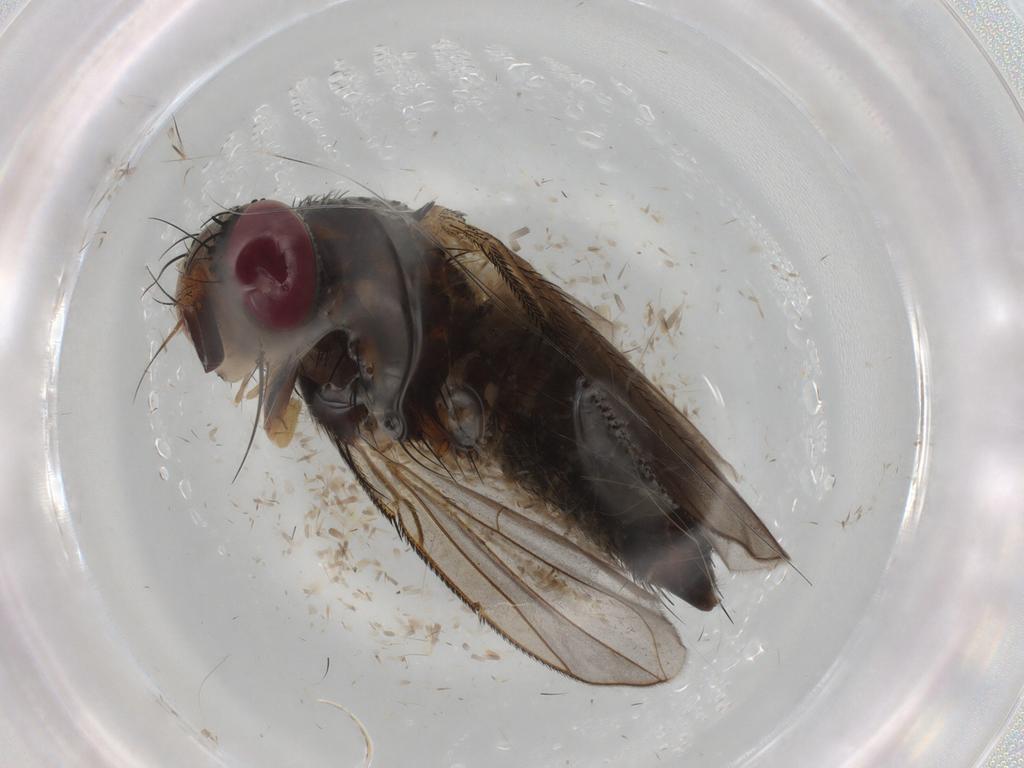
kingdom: Animalia
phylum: Arthropoda
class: Insecta
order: Diptera
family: Tachinidae
